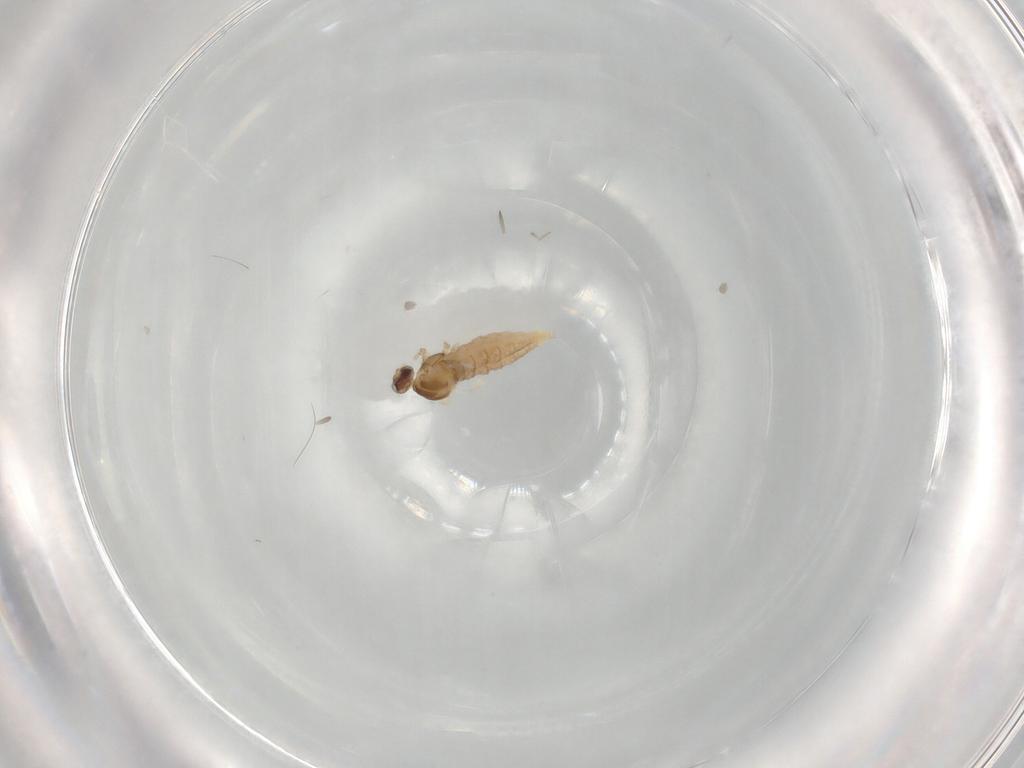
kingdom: Animalia
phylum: Arthropoda
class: Insecta
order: Diptera
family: Cecidomyiidae
